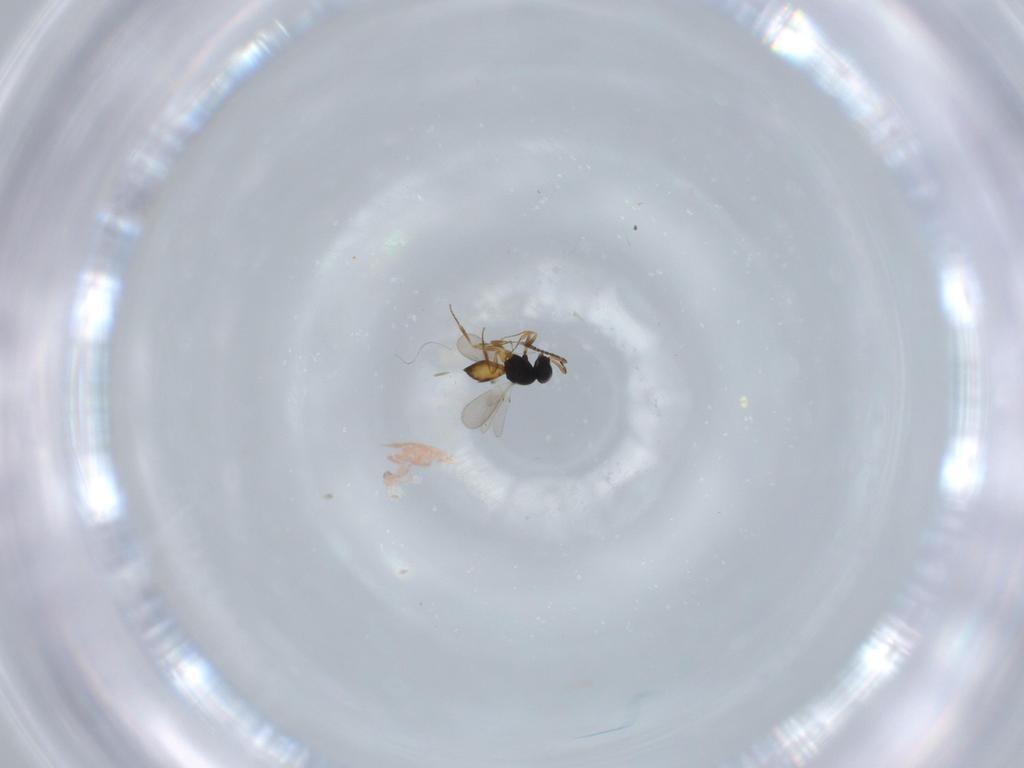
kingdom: Animalia
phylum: Arthropoda
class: Insecta
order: Hymenoptera
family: Scelionidae
